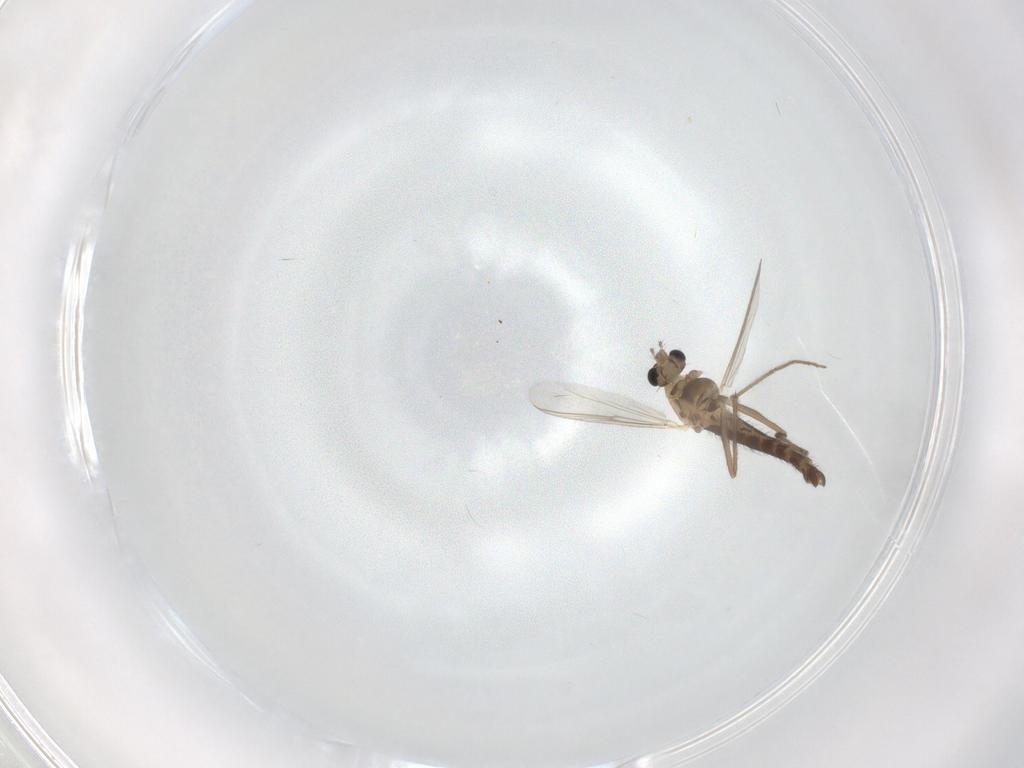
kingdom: Animalia
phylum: Arthropoda
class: Insecta
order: Diptera
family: Chironomidae
